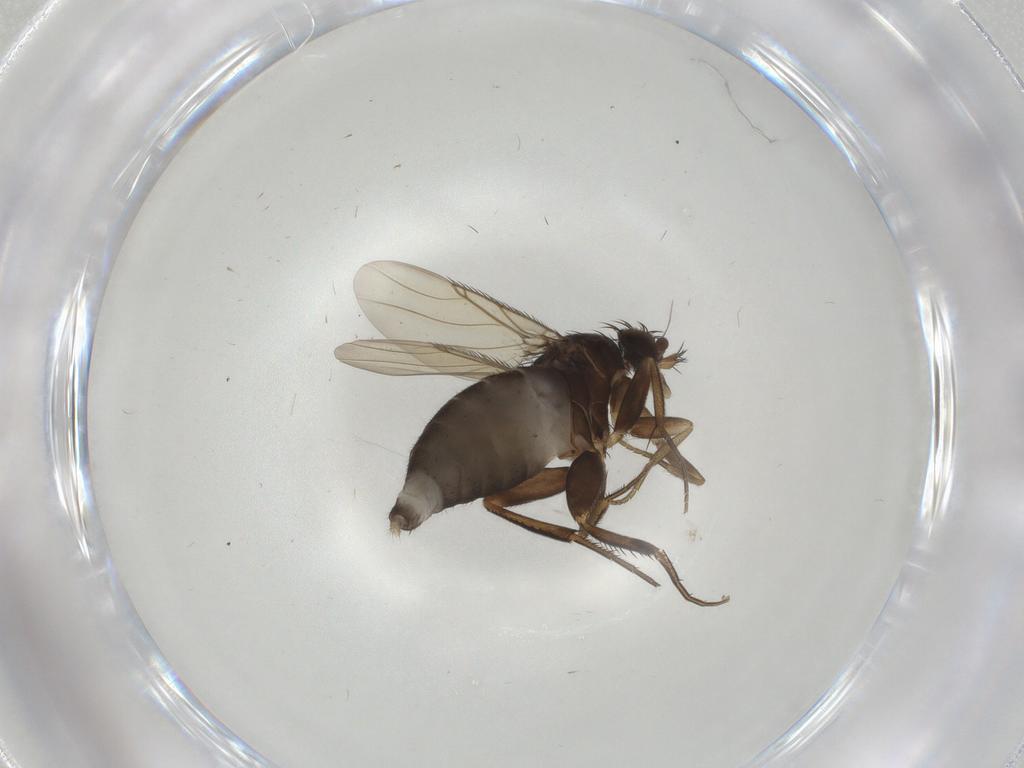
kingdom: Animalia
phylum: Arthropoda
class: Insecta
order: Diptera
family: Phoridae
